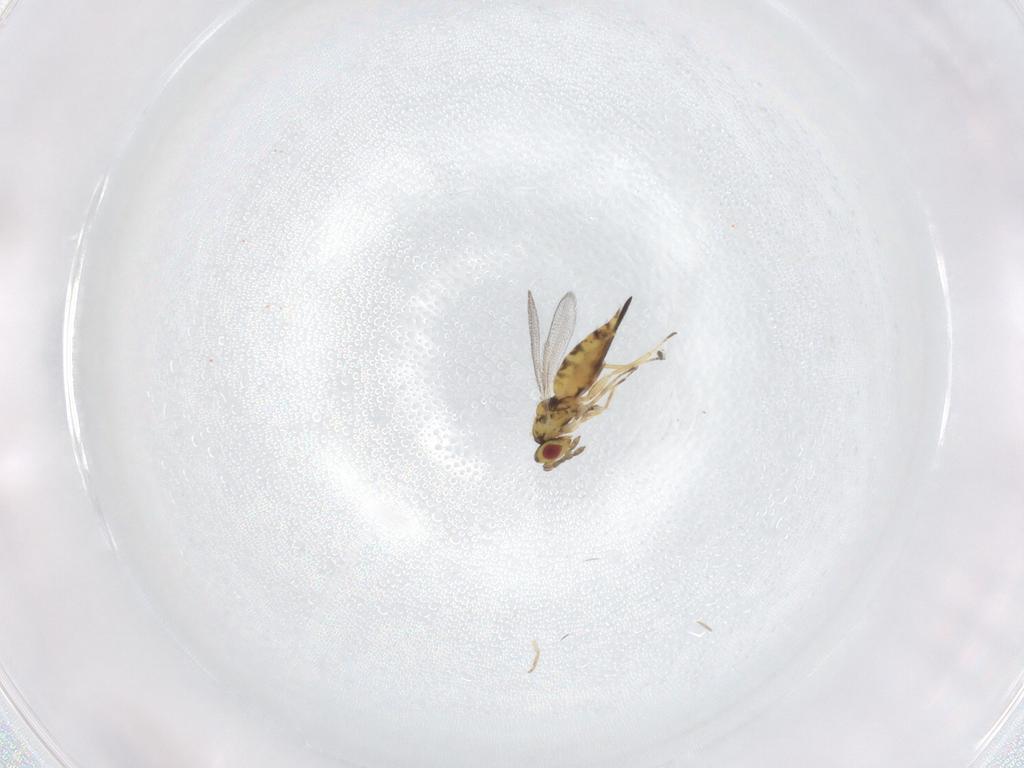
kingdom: Animalia
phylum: Arthropoda
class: Insecta
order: Hymenoptera
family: Eulophidae
